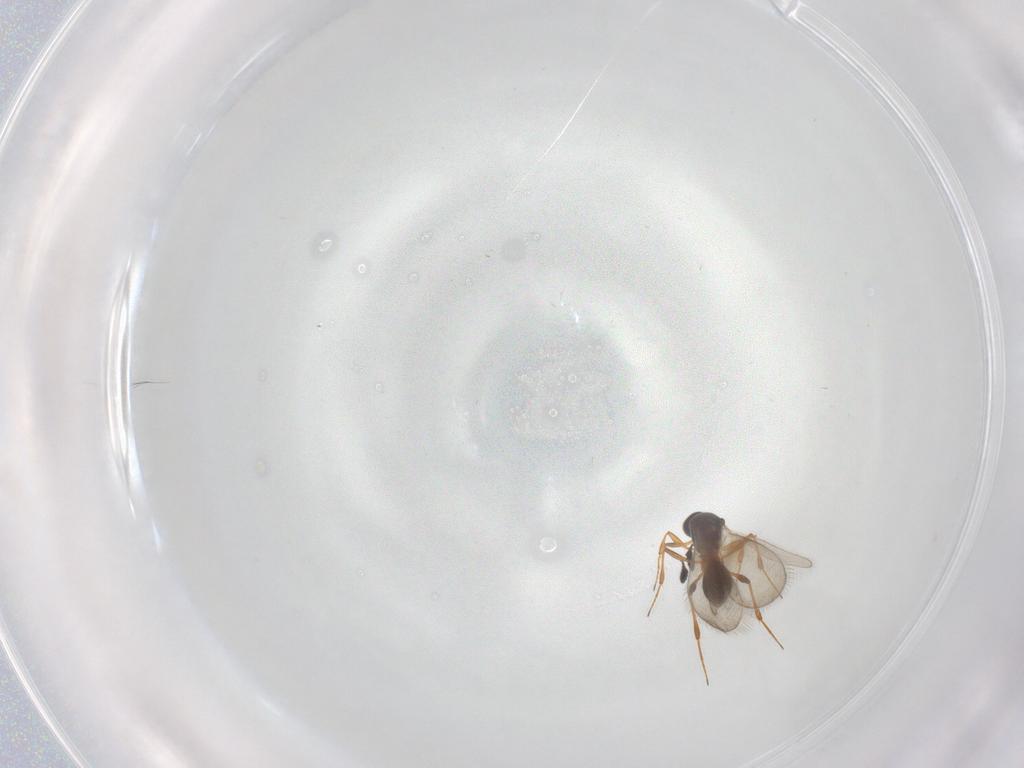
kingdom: Animalia
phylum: Arthropoda
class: Insecta
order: Hymenoptera
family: Platygastridae
